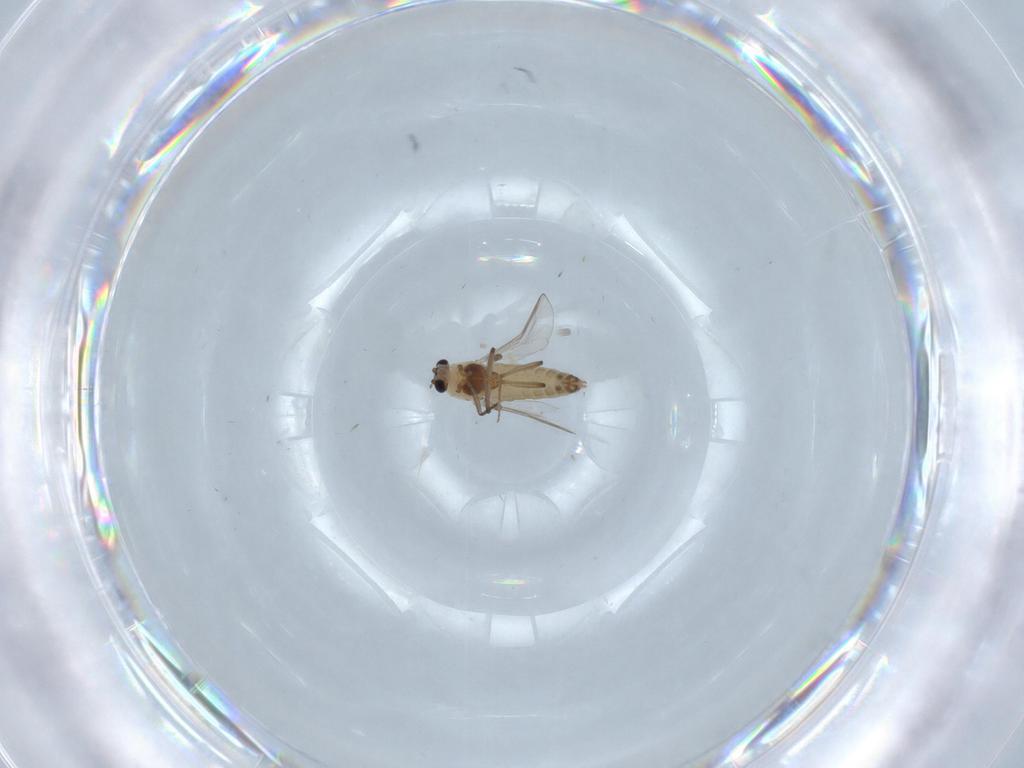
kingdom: Animalia
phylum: Arthropoda
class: Insecta
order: Diptera
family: Chironomidae
